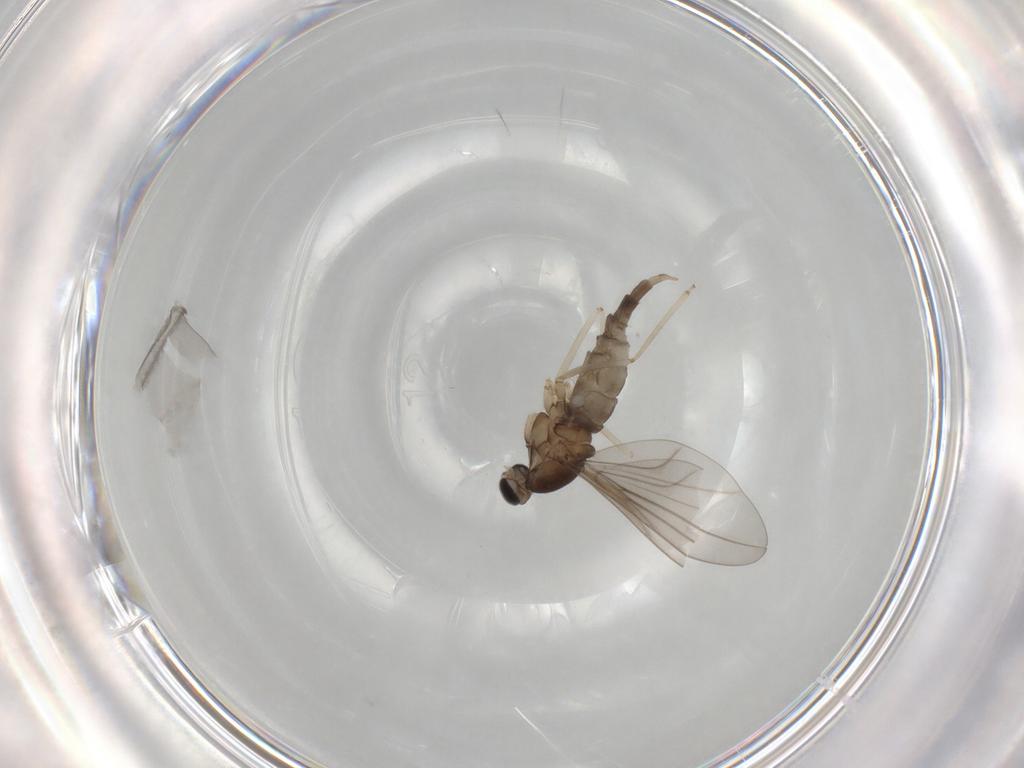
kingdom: Animalia
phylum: Arthropoda
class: Insecta
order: Diptera
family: Cecidomyiidae
